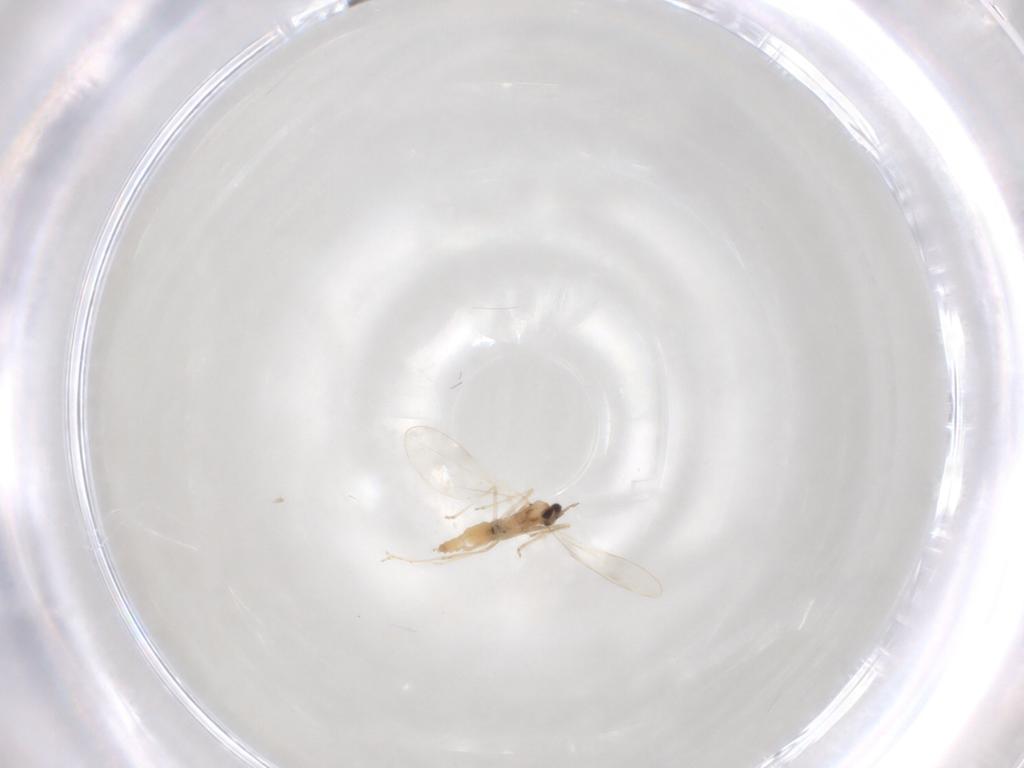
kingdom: Animalia
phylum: Arthropoda
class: Insecta
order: Diptera
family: Cecidomyiidae
